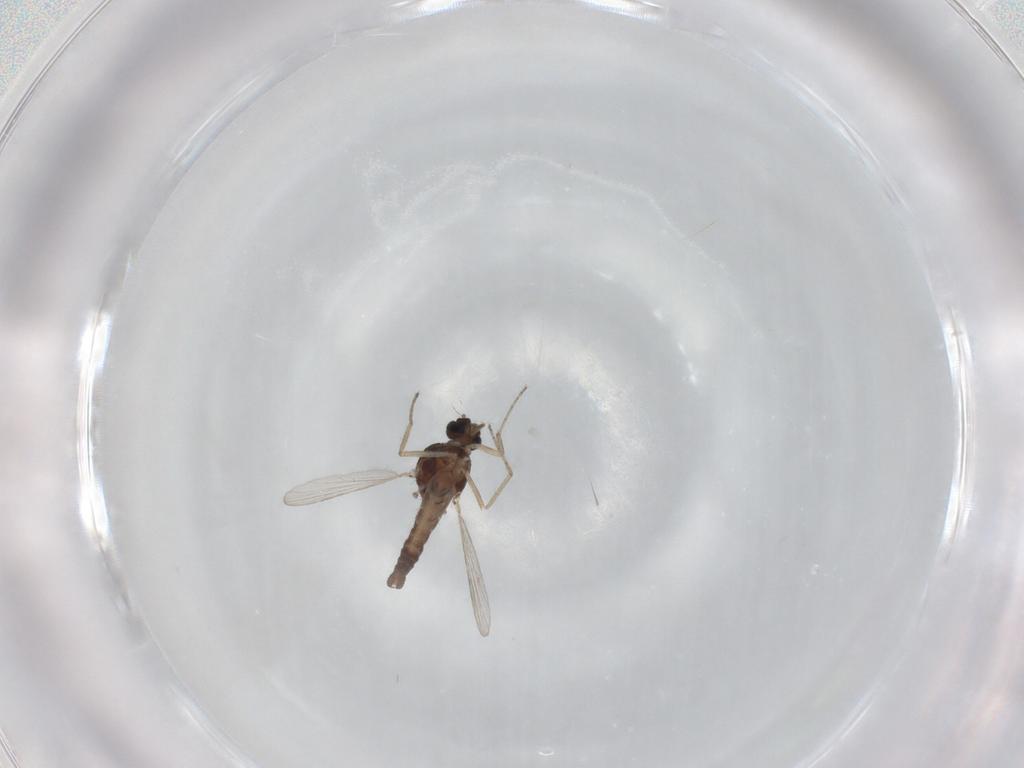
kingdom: Animalia
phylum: Arthropoda
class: Insecta
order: Diptera
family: Ceratopogonidae
